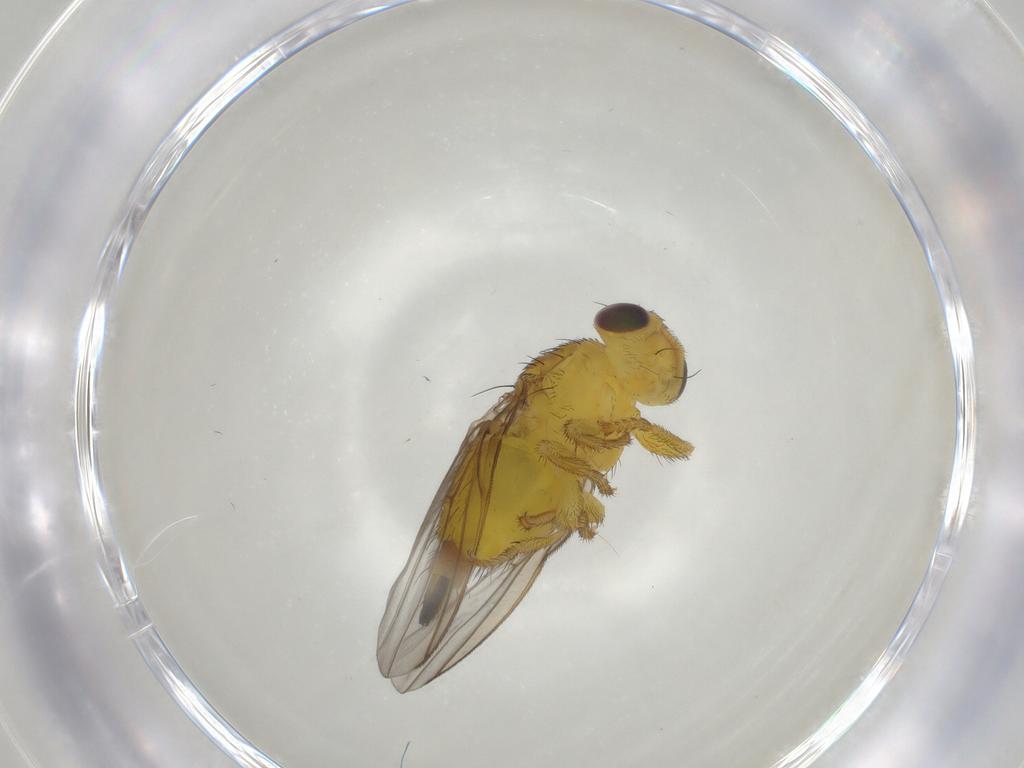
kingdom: Animalia
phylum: Arthropoda
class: Insecta
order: Diptera
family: Fergusoninidae
